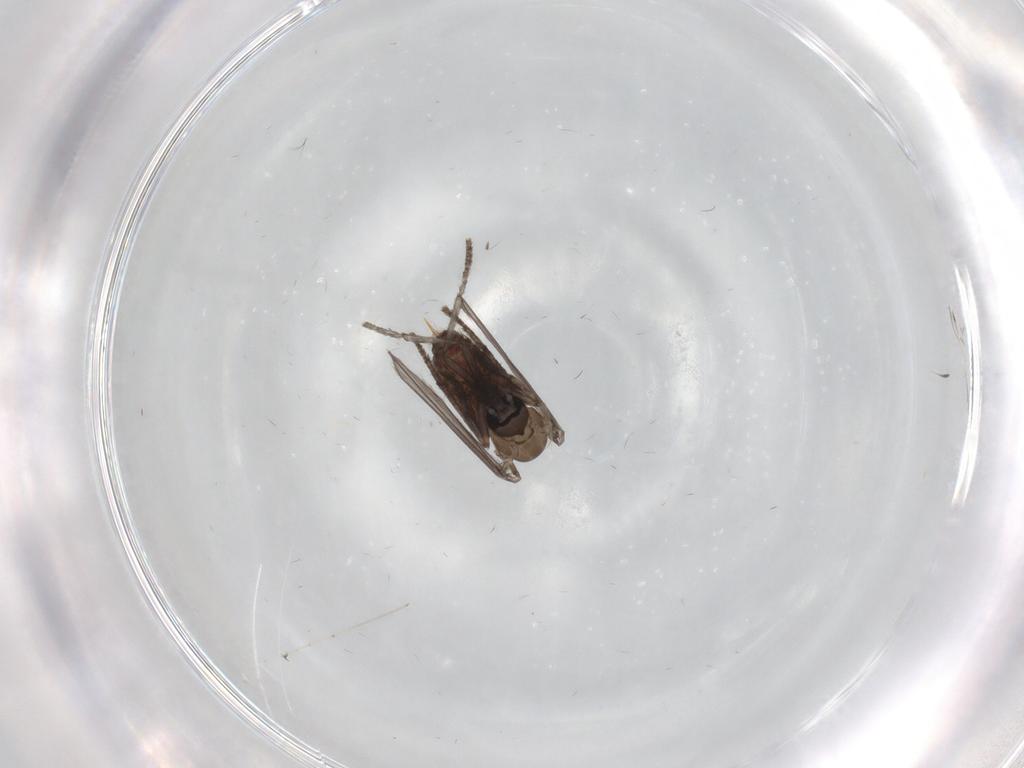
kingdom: Animalia
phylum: Arthropoda
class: Insecta
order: Diptera
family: Psychodidae
